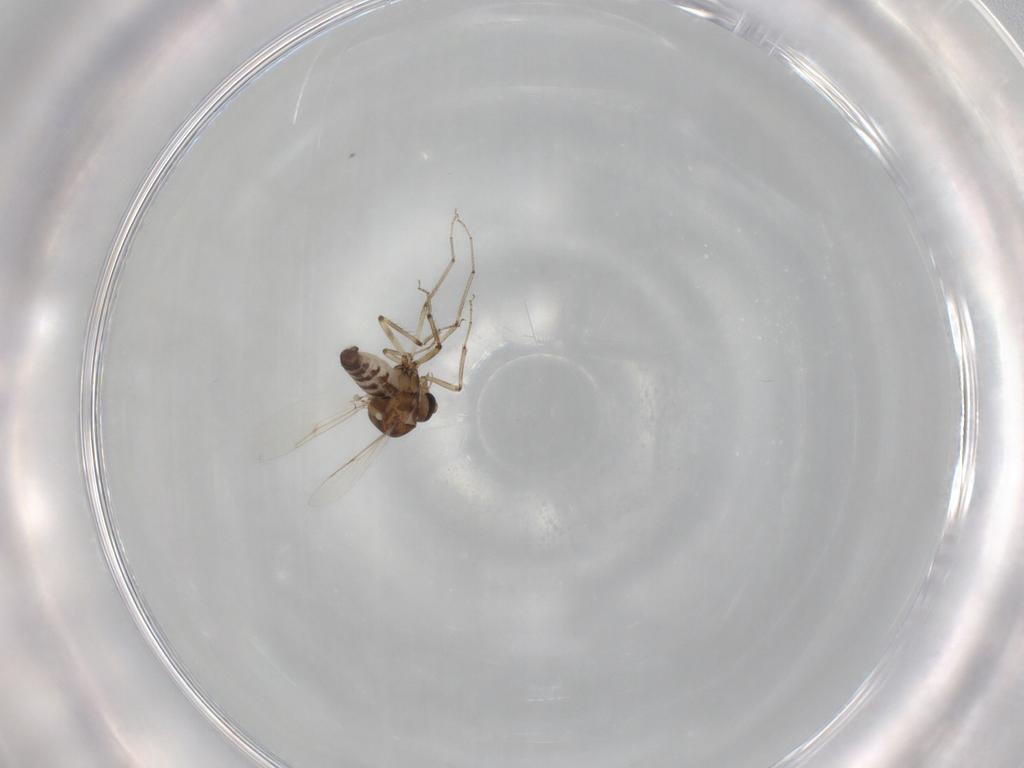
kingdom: Animalia
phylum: Arthropoda
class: Insecta
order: Diptera
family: Ceratopogonidae
